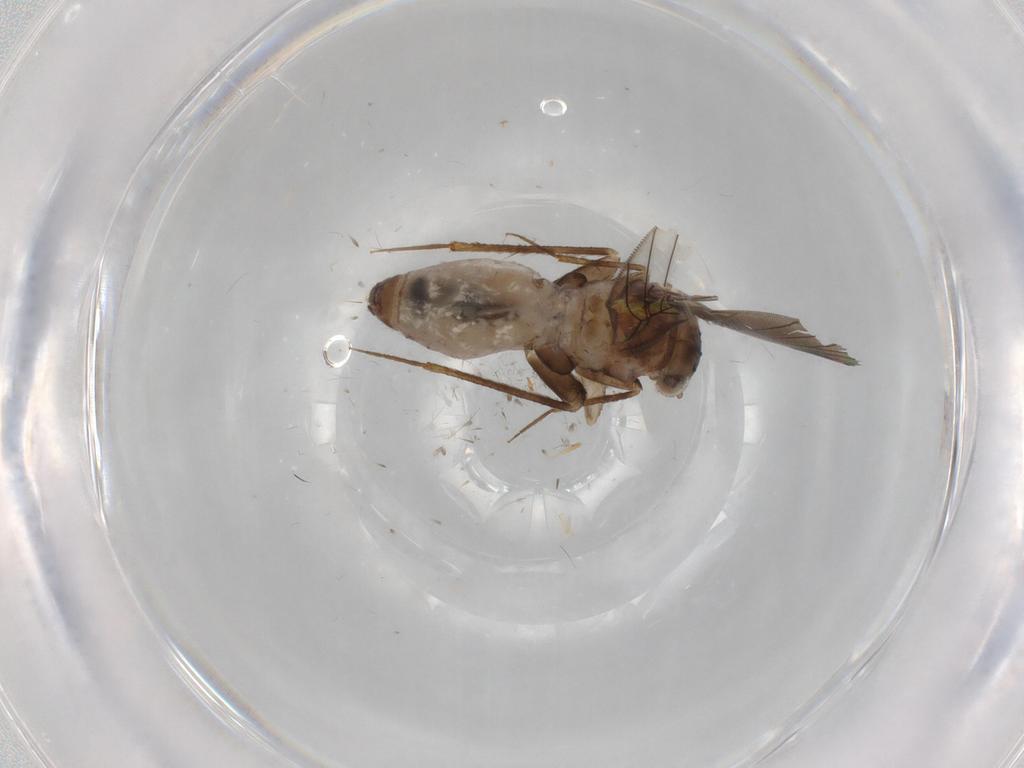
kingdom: Animalia
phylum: Arthropoda
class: Insecta
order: Psocodea
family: Lepidopsocidae
